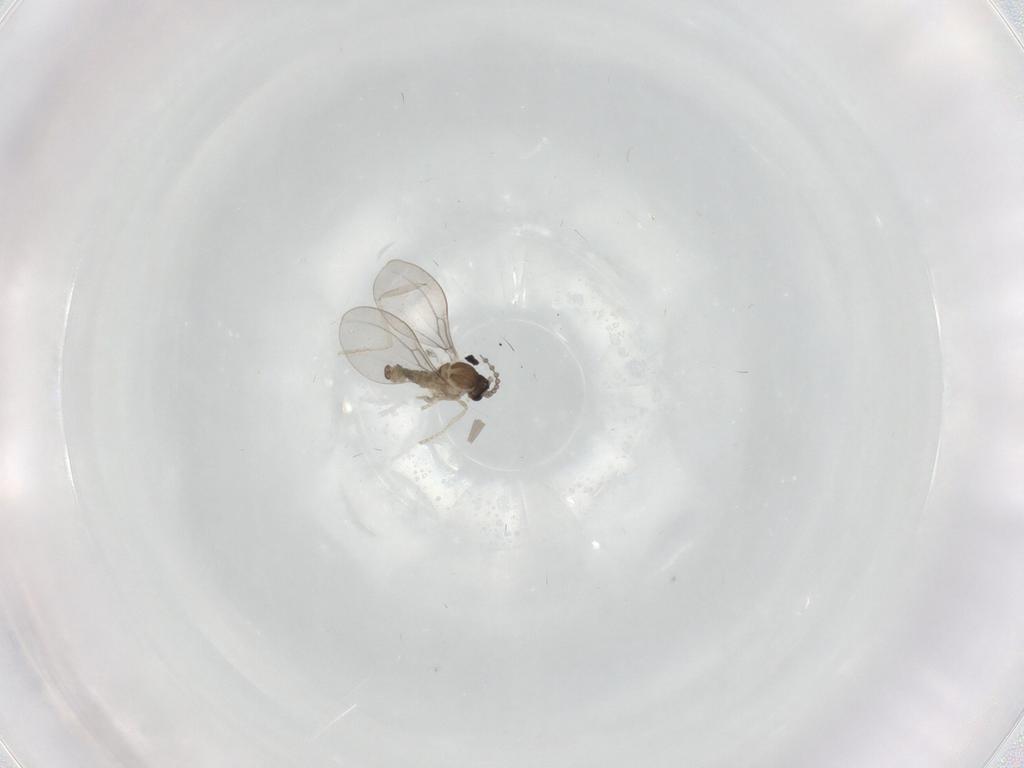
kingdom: Animalia
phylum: Arthropoda
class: Insecta
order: Diptera
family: Cecidomyiidae
